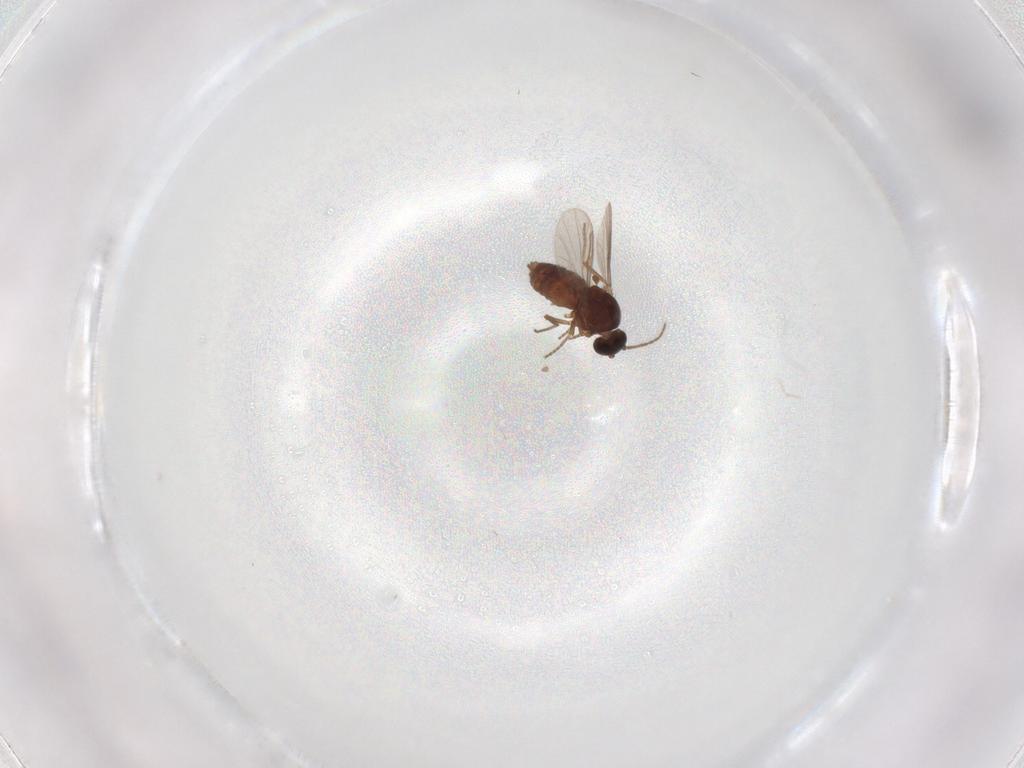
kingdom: Animalia
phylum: Arthropoda
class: Insecta
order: Diptera
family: Ceratopogonidae
